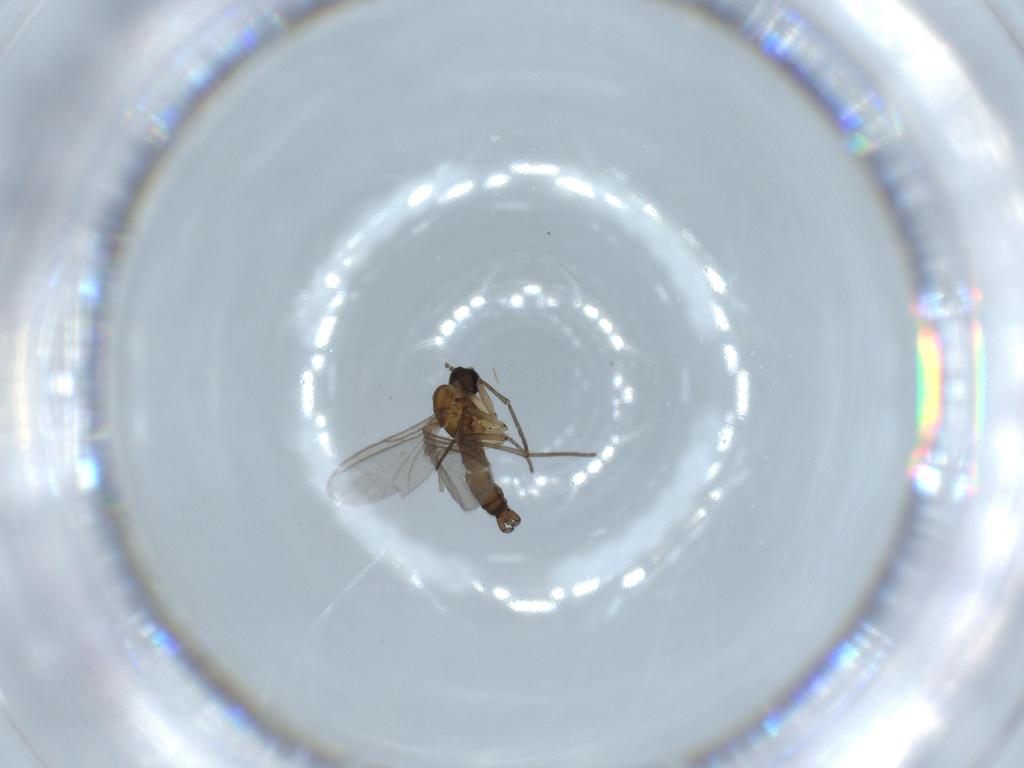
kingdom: Animalia
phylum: Arthropoda
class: Insecta
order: Diptera
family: Sciaridae
